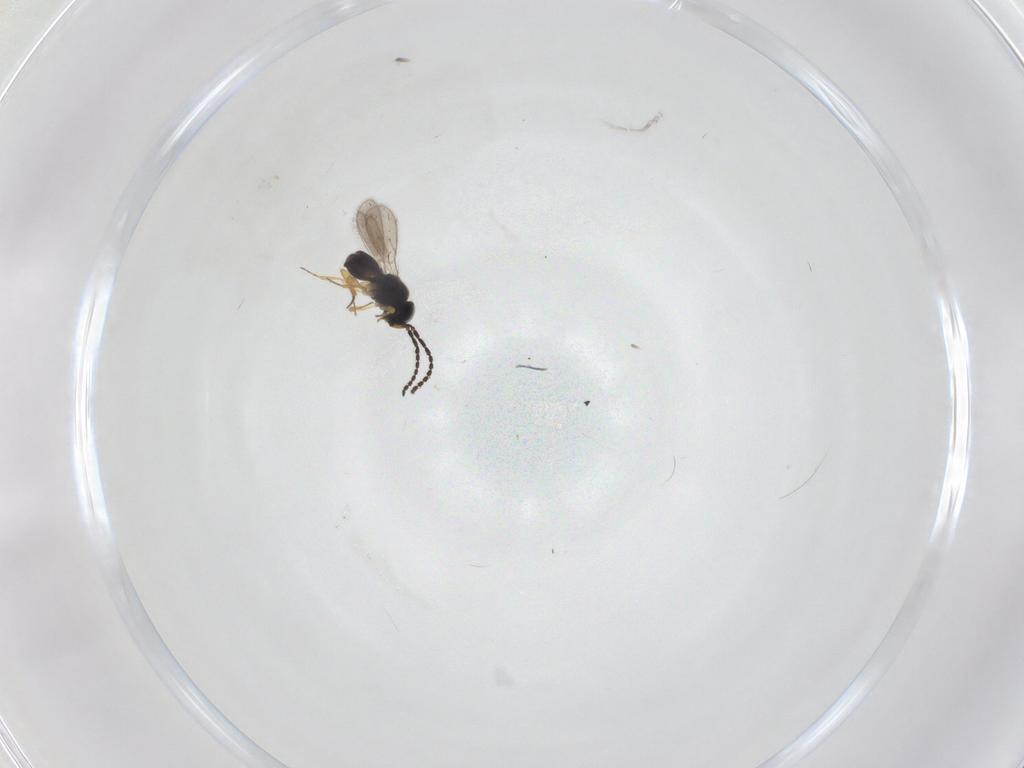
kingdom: Animalia
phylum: Arthropoda
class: Insecta
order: Hymenoptera
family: Scelionidae
